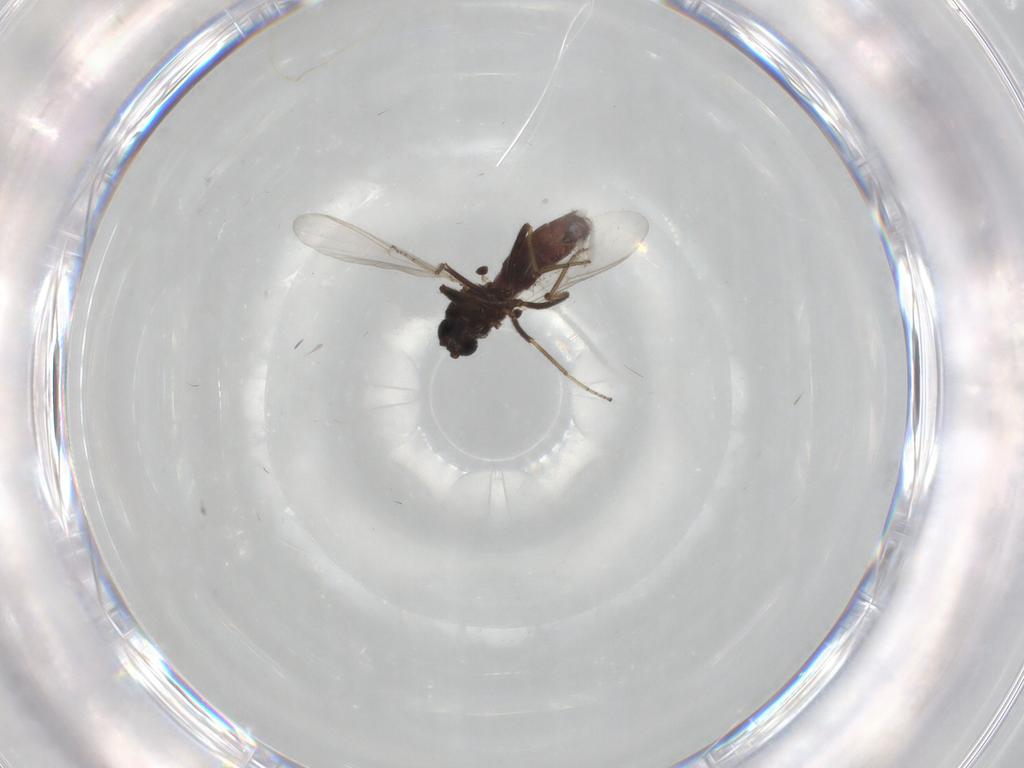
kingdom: Animalia
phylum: Arthropoda
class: Insecta
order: Diptera
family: Ceratopogonidae
